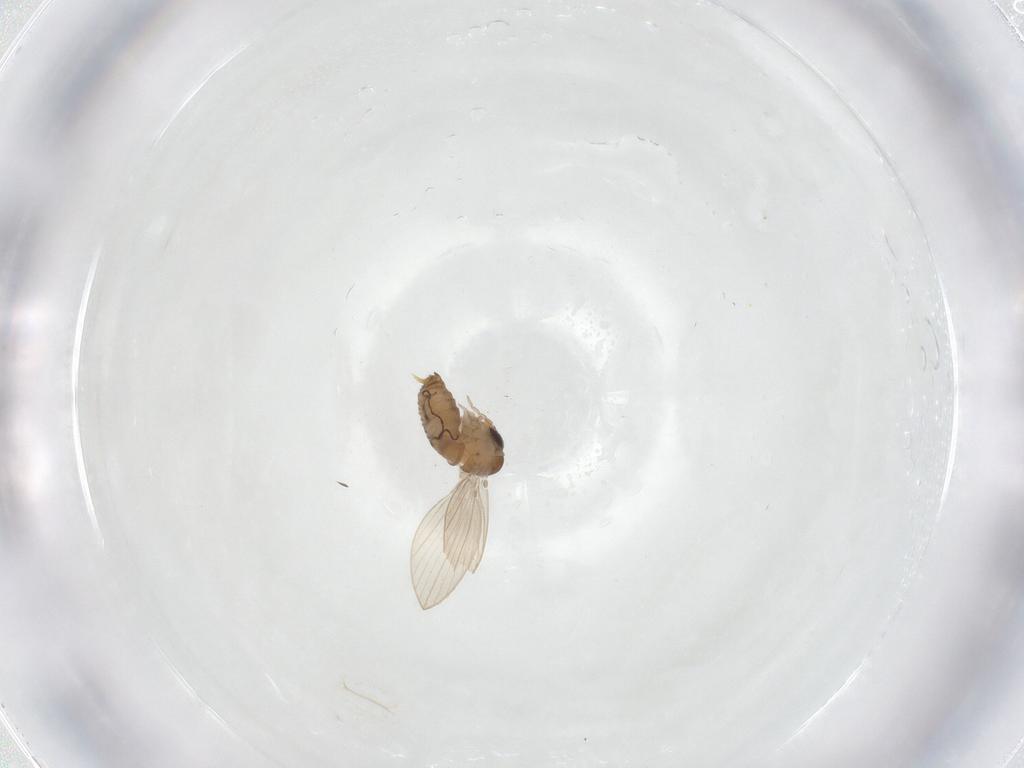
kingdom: Animalia
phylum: Arthropoda
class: Insecta
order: Diptera
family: Psychodidae
